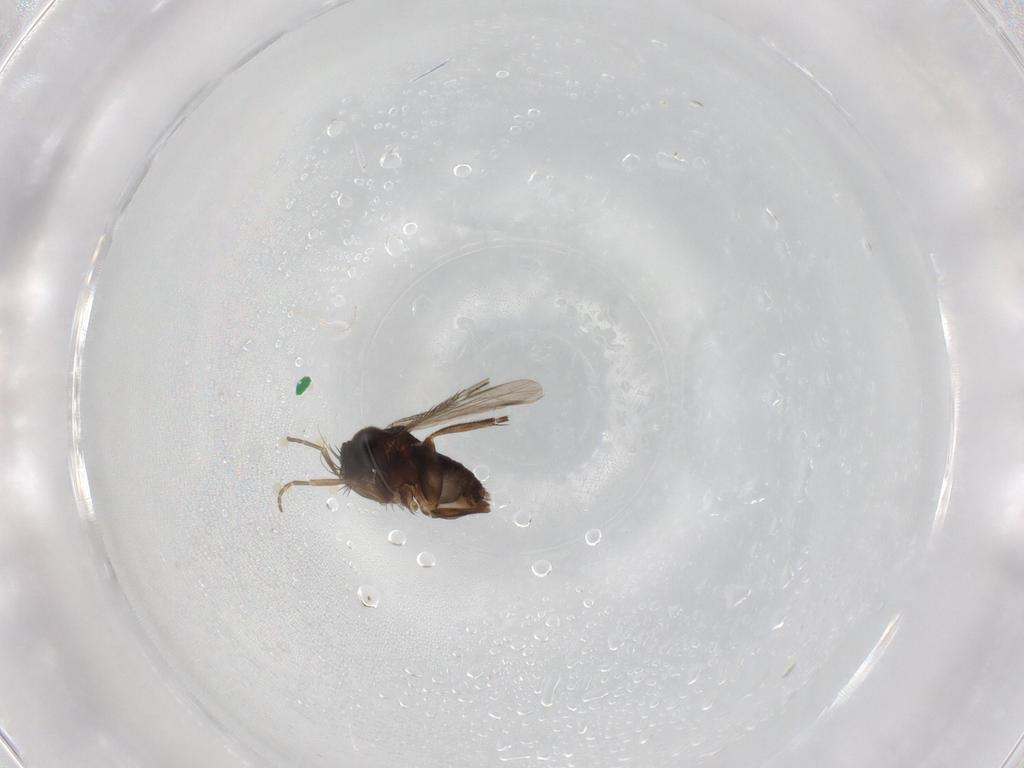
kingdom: Animalia
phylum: Arthropoda
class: Insecta
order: Diptera
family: Phoridae
